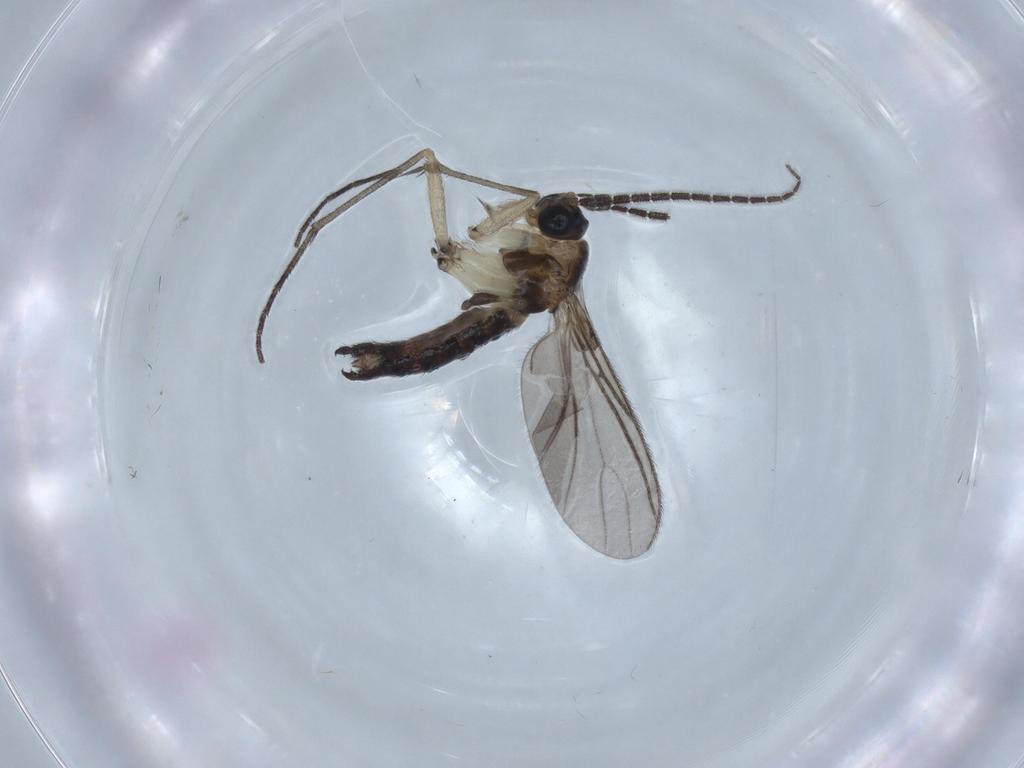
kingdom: Animalia
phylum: Arthropoda
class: Insecta
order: Diptera
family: Phoridae
